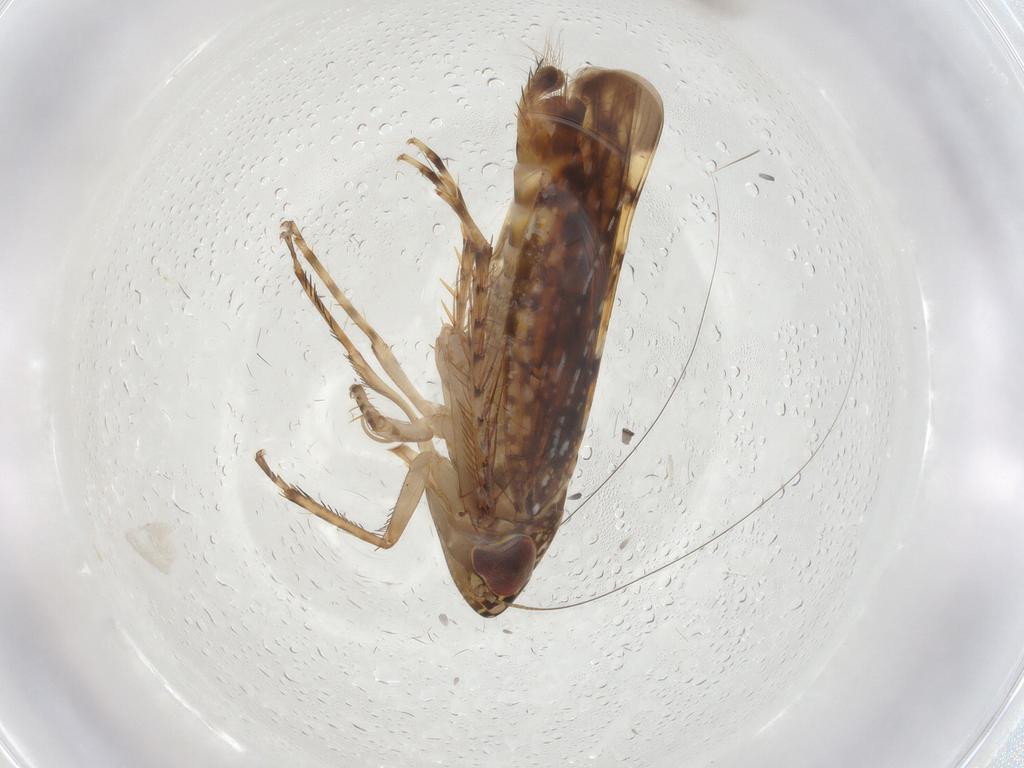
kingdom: Animalia
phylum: Arthropoda
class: Insecta
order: Hemiptera
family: Cicadellidae
